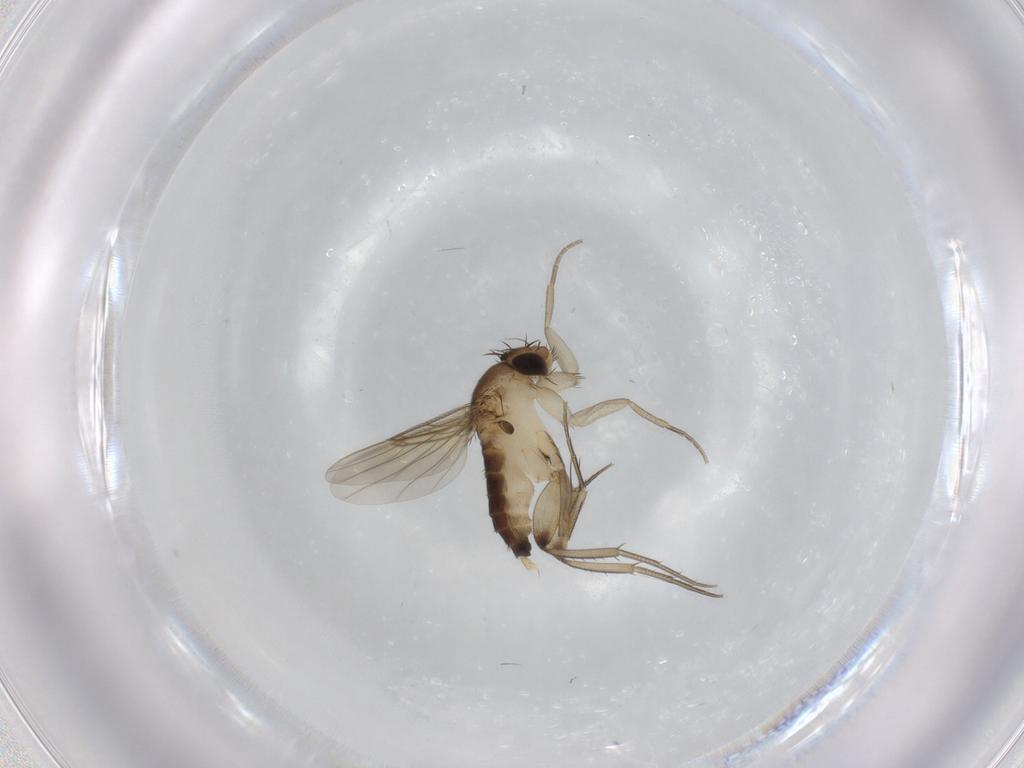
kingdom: Animalia
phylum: Arthropoda
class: Insecta
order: Diptera
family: Phoridae
